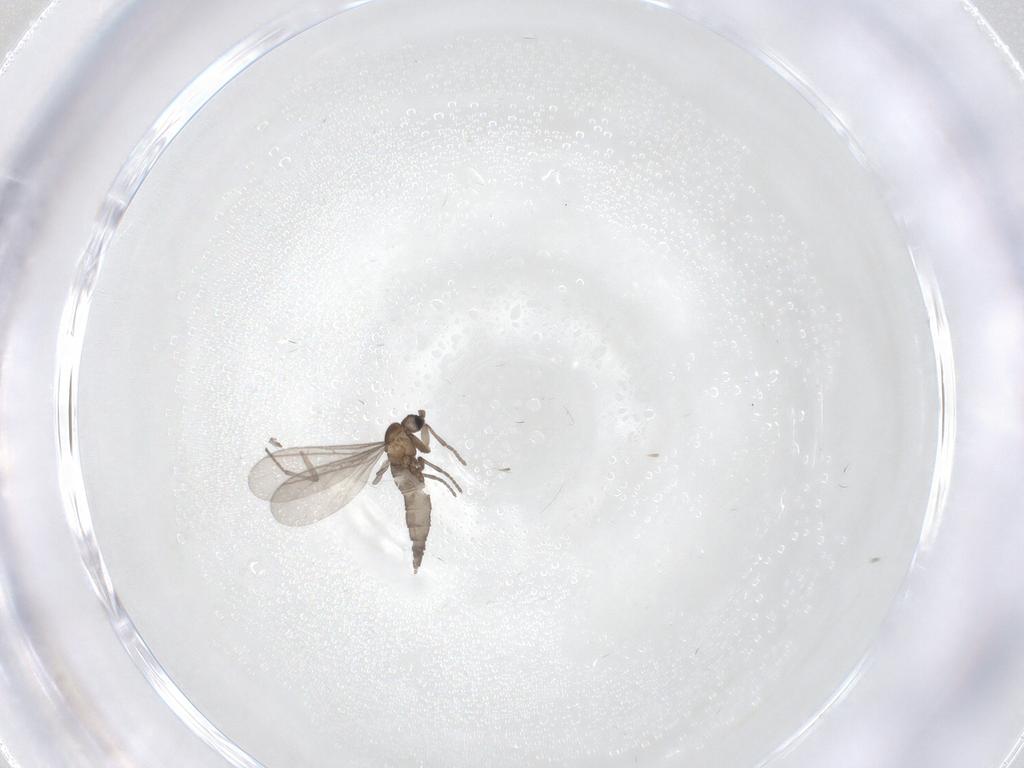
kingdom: Animalia
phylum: Arthropoda
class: Insecta
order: Diptera
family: Sciaridae
